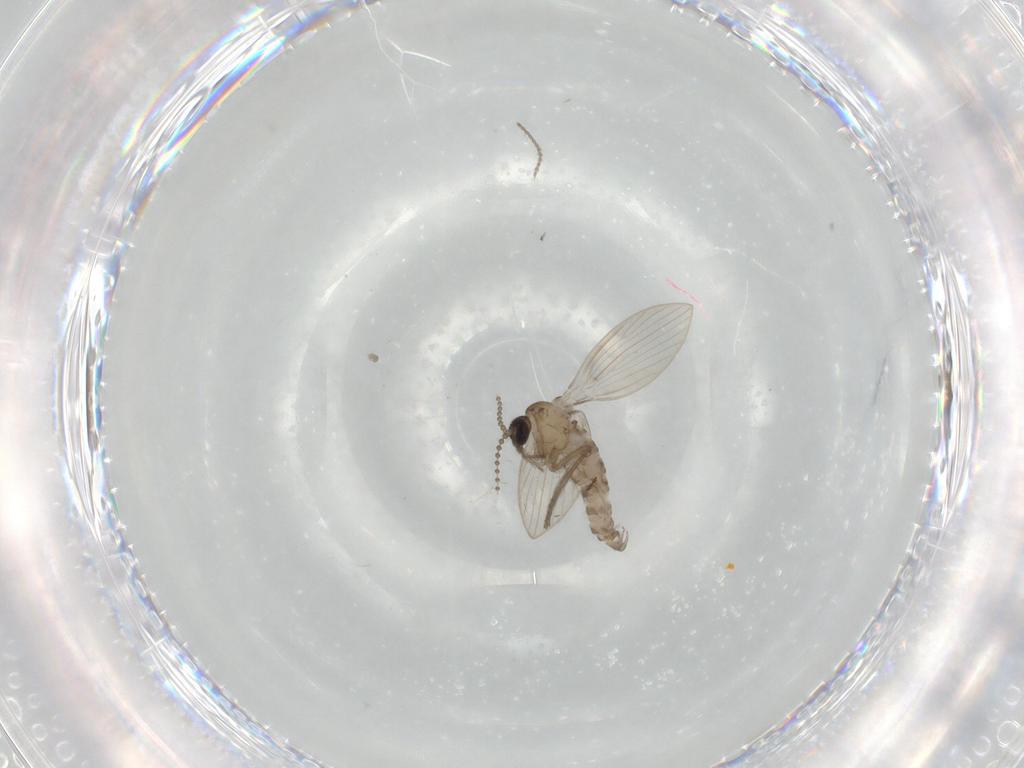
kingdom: Animalia
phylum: Arthropoda
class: Insecta
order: Diptera
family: Psychodidae
